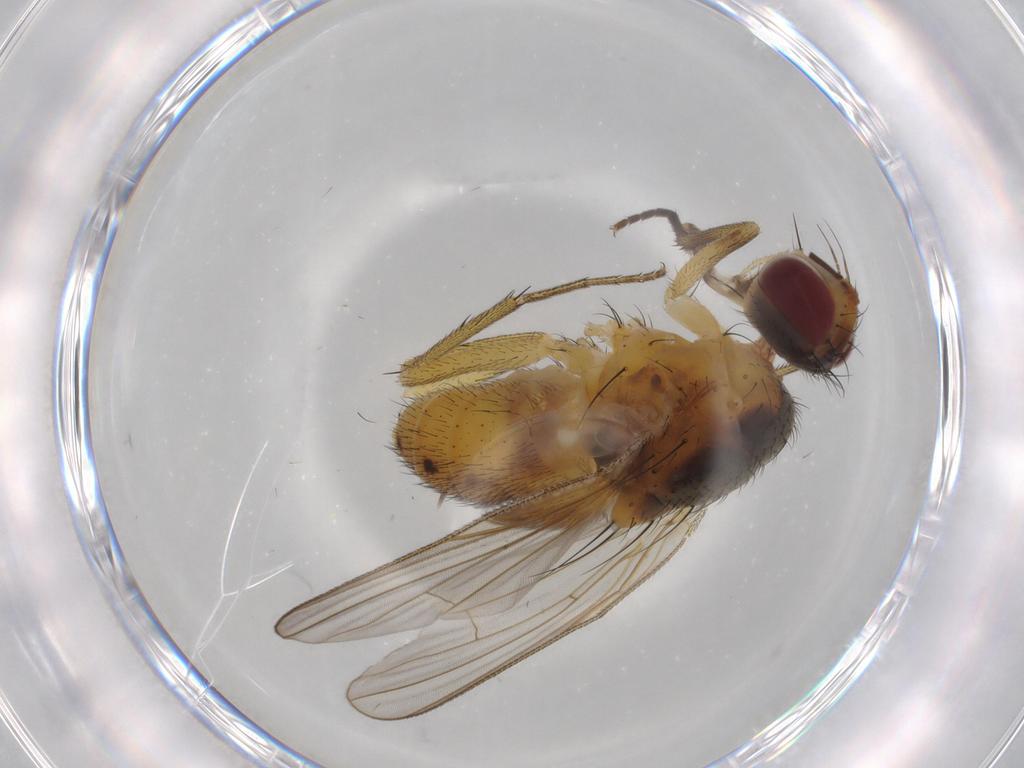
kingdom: Animalia
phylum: Arthropoda
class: Insecta
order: Diptera
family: Muscidae
